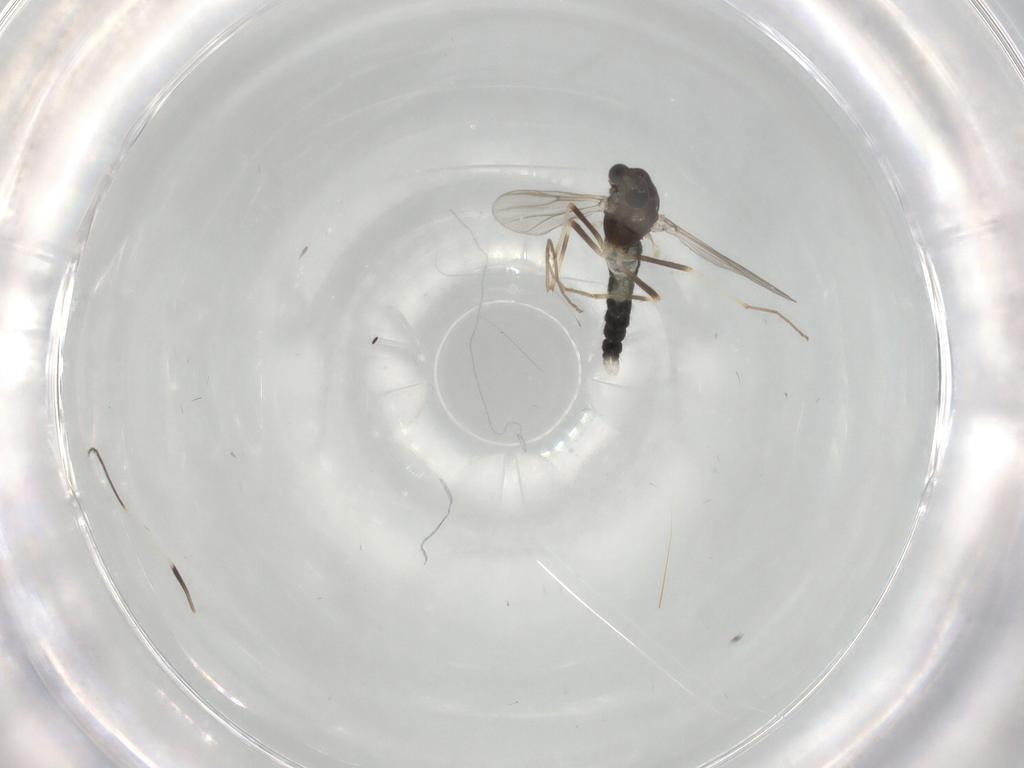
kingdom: Animalia
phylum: Arthropoda
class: Insecta
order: Diptera
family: Chironomidae
